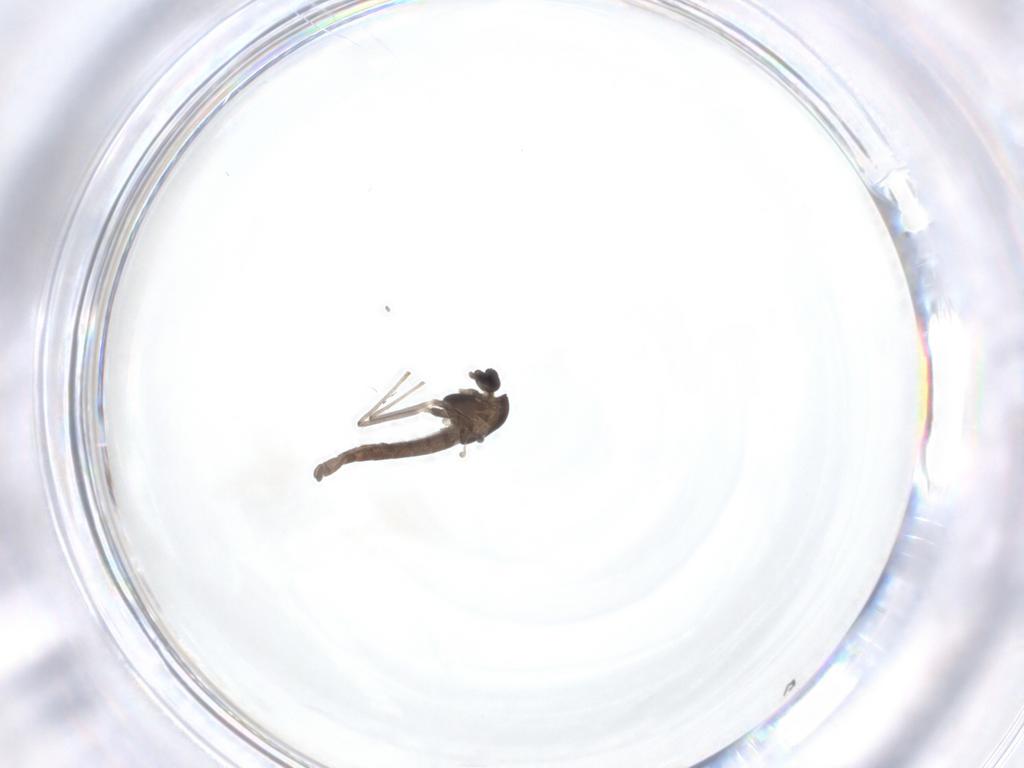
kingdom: Animalia
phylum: Arthropoda
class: Insecta
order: Diptera
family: Chironomidae
